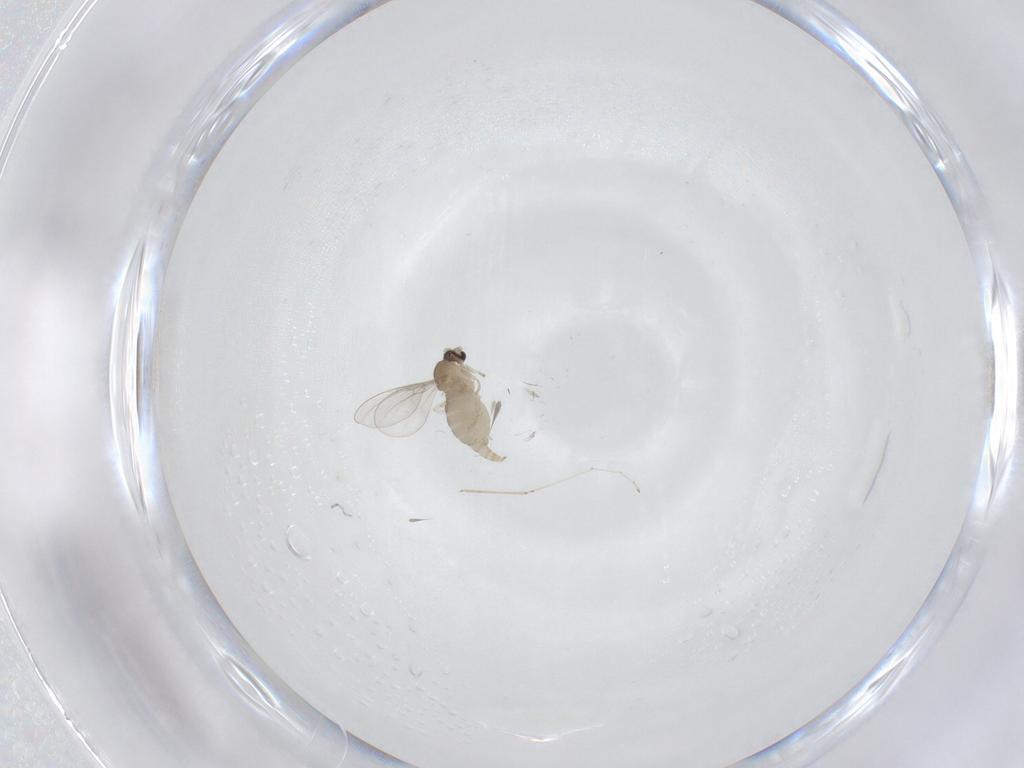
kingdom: Animalia
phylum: Arthropoda
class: Insecta
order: Diptera
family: Cecidomyiidae
